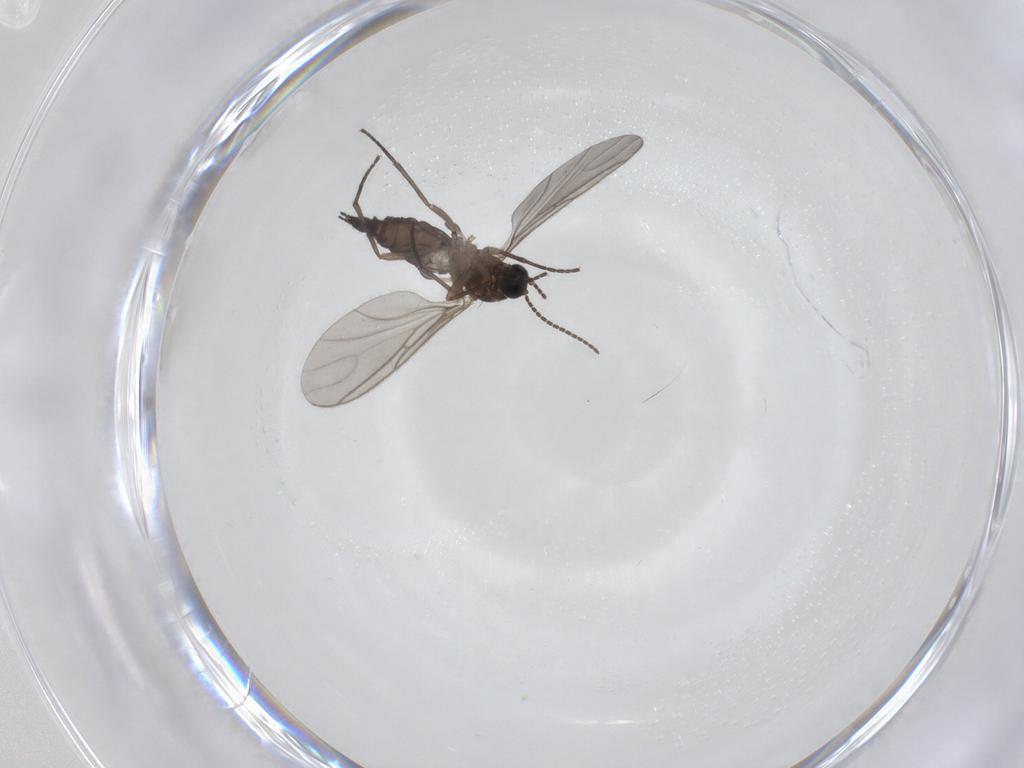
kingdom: Animalia
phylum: Arthropoda
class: Insecta
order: Diptera
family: Sciaridae
